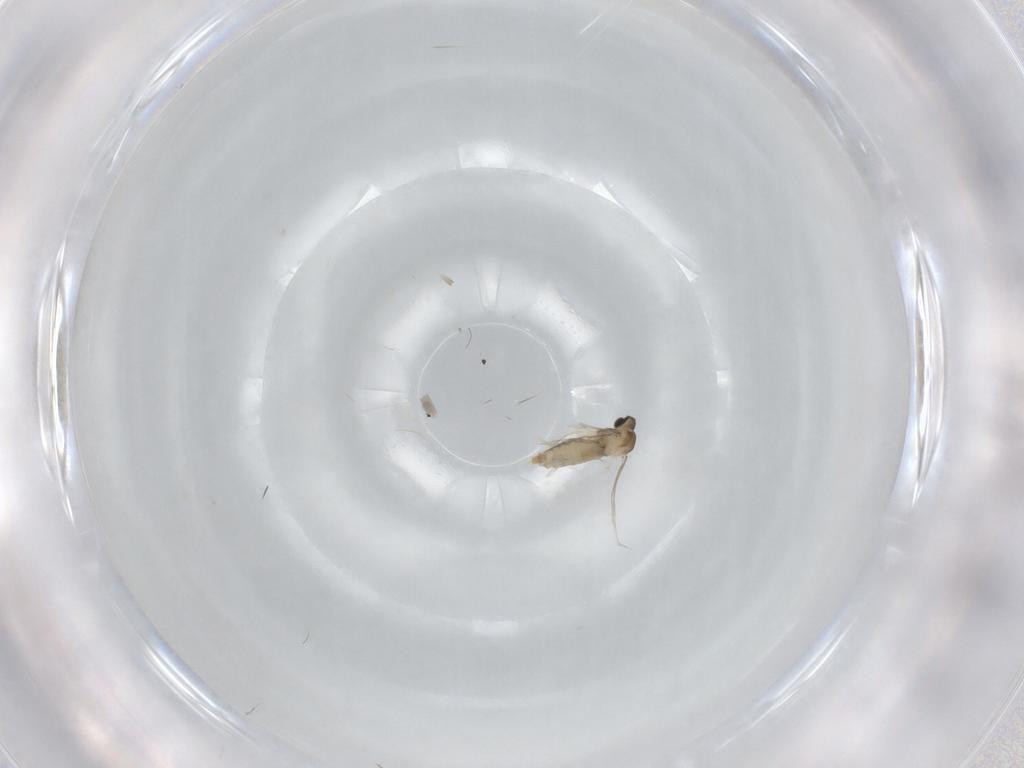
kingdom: Animalia
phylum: Arthropoda
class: Insecta
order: Diptera
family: Cecidomyiidae
